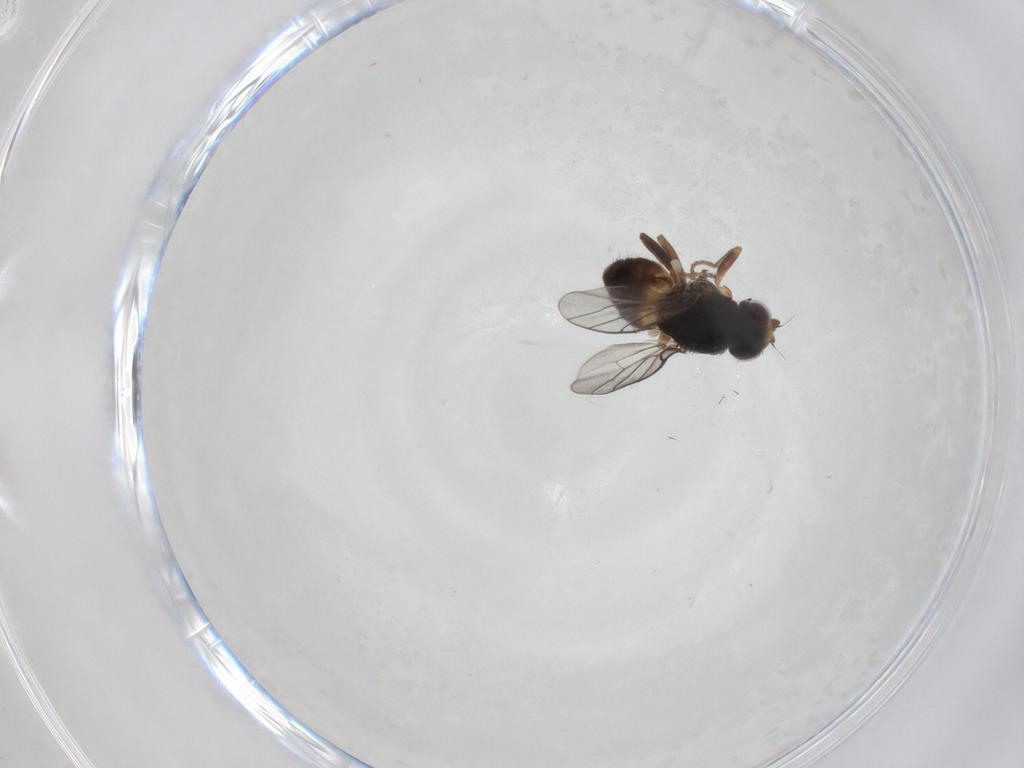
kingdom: Animalia
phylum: Arthropoda
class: Insecta
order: Diptera
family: Chloropidae
